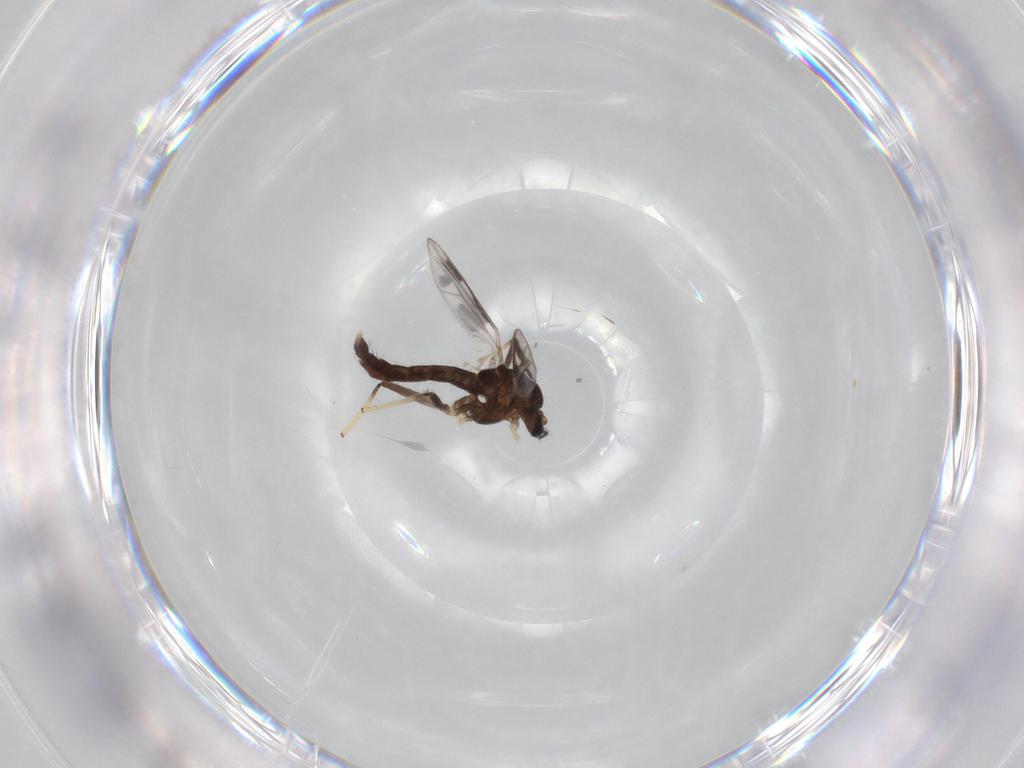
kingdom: Animalia
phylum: Arthropoda
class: Insecta
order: Diptera
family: Chironomidae
